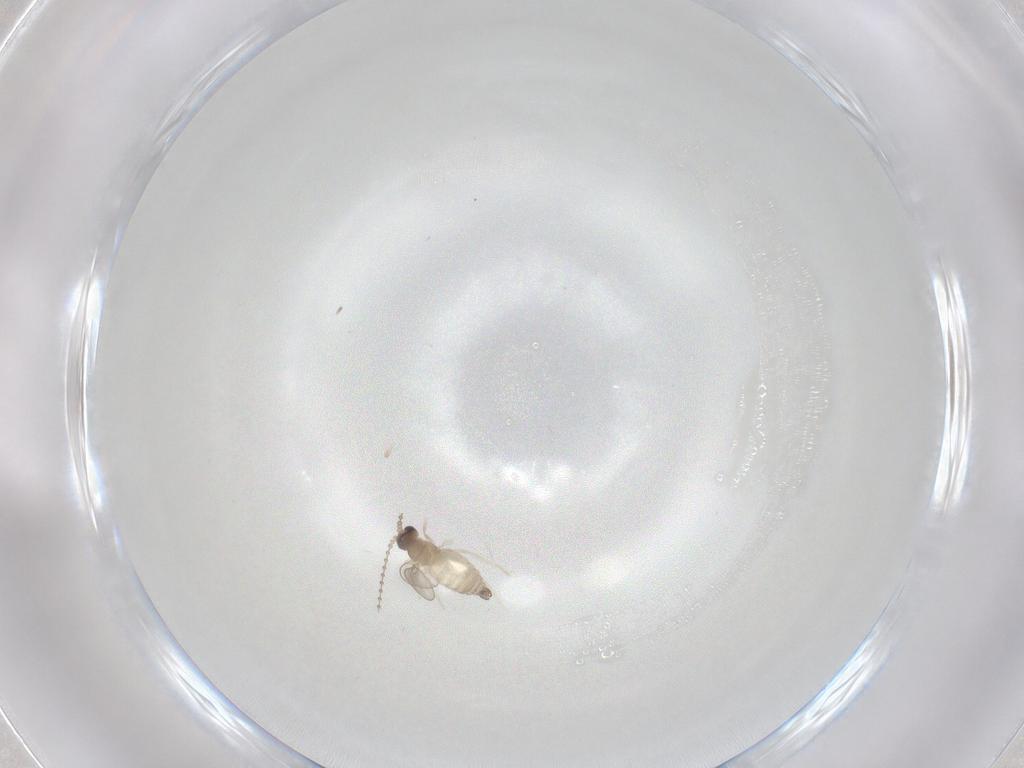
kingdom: Animalia
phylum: Arthropoda
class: Insecta
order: Diptera
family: Cecidomyiidae
